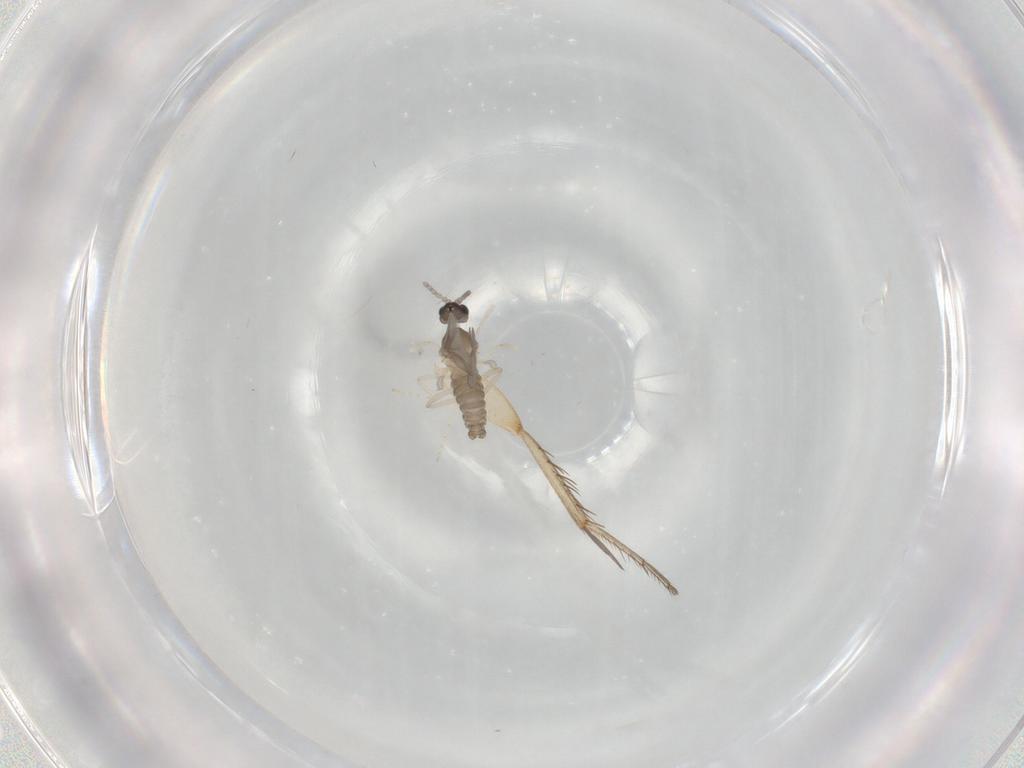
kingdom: Animalia
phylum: Arthropoda
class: Insecta
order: Diptera
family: Cecidomyiidae
